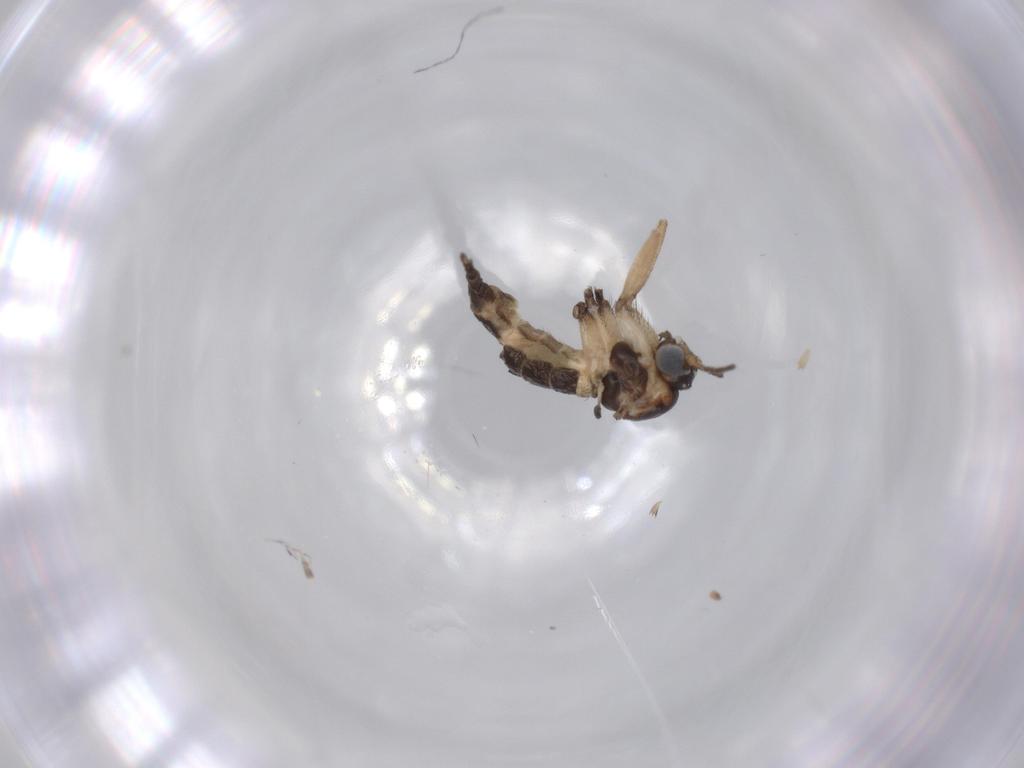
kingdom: Animalia
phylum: Arthropoda
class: Insecta
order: Diptera
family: Sciaridae
